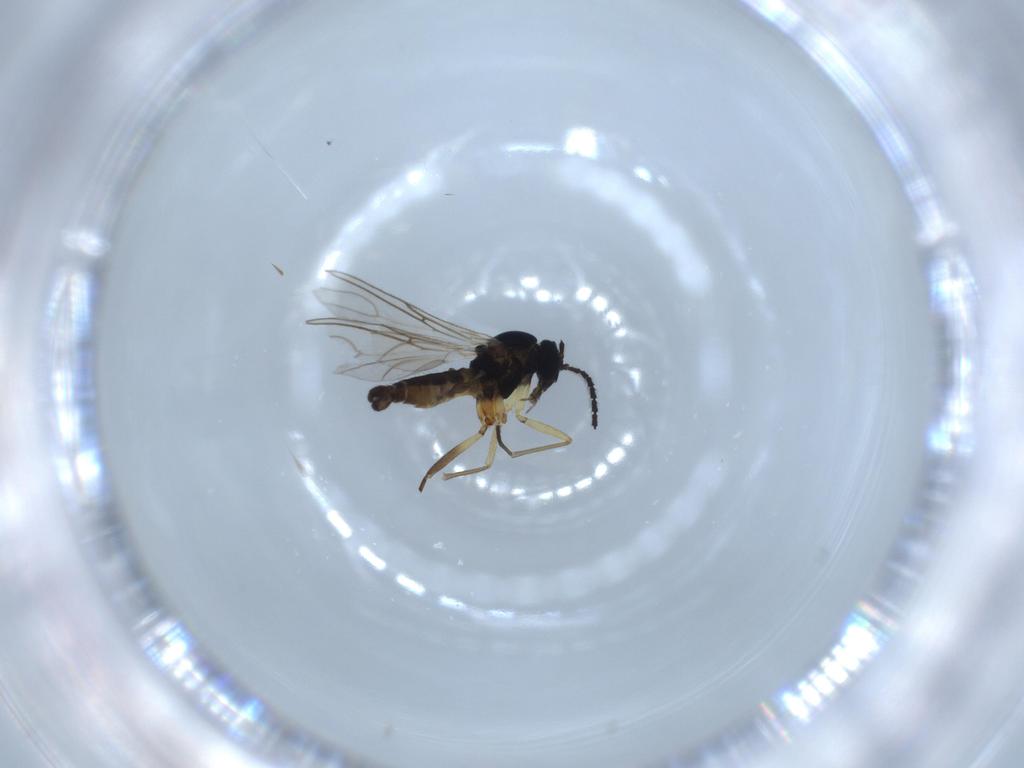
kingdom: Animalia
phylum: Arthropoda
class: Insecta
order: Diptera
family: Sciaridae
